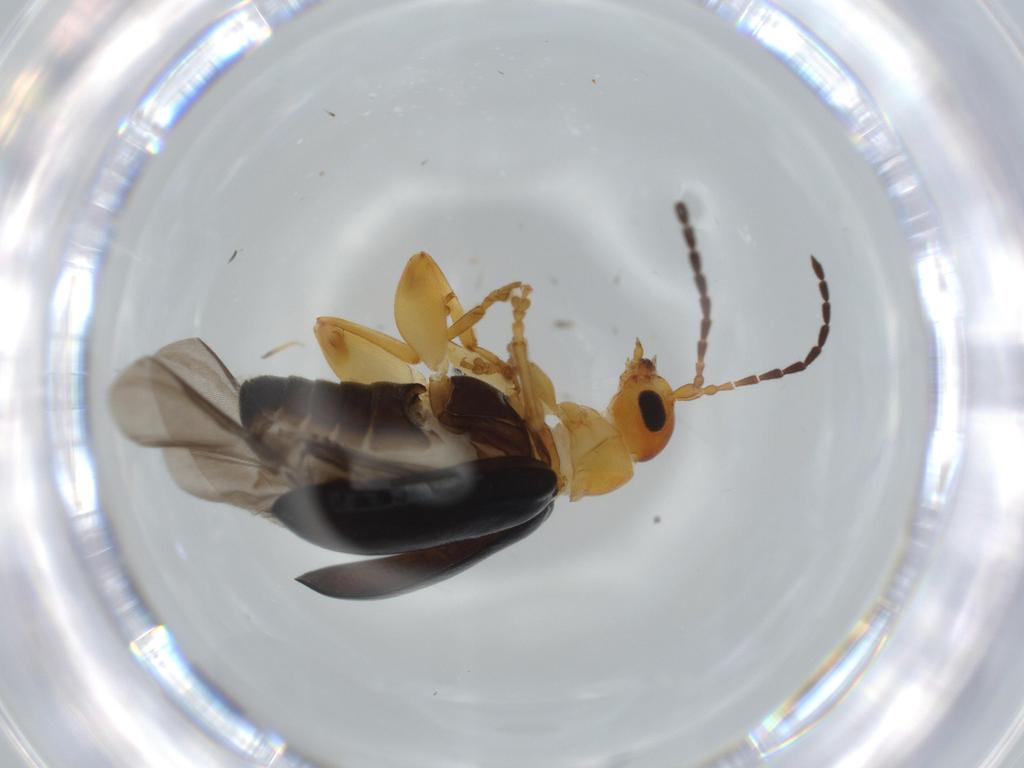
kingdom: Animalia
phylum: Arthropoda
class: Insecta
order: Coleoptera
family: Chrysomelidae
